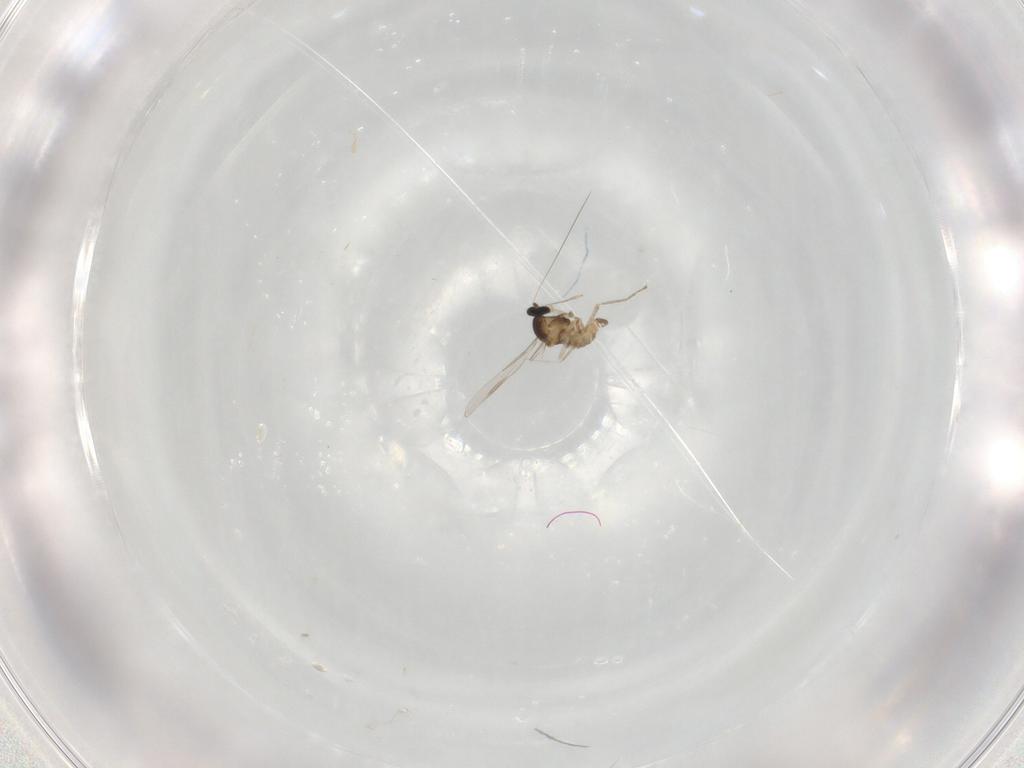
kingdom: Animalia
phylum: Arthropoda
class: Insecta
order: Diptera
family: Cecidomyiidae
